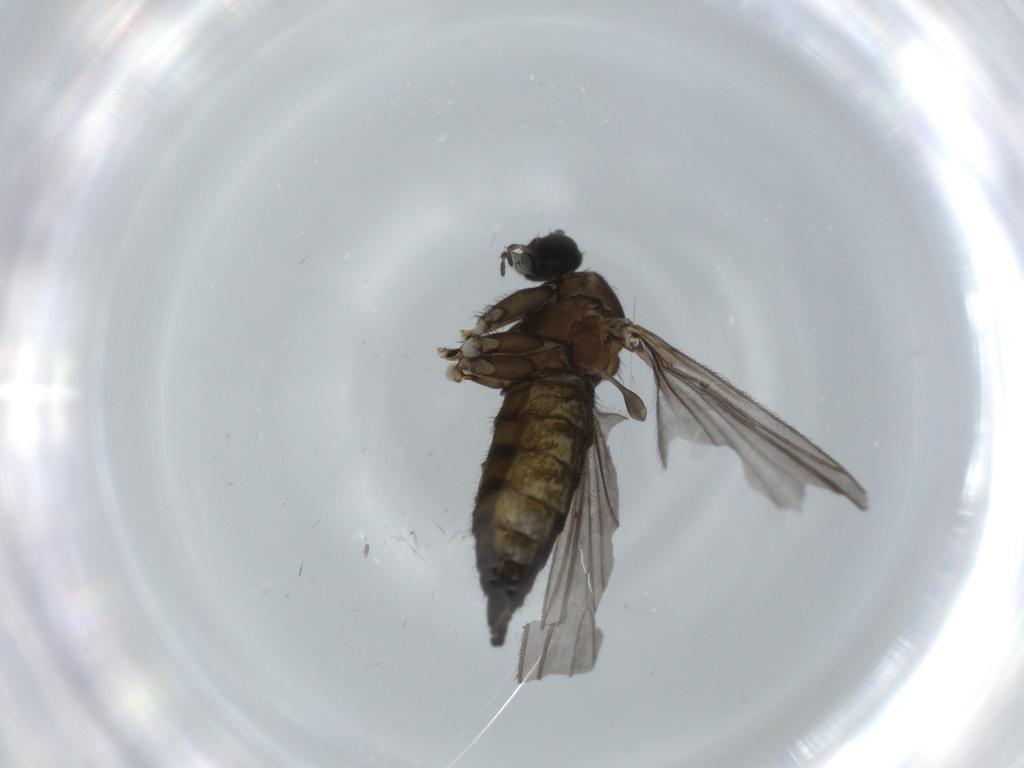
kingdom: Animalia
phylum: Arthropoda
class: Insecta
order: Diptera
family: Sciaridae
